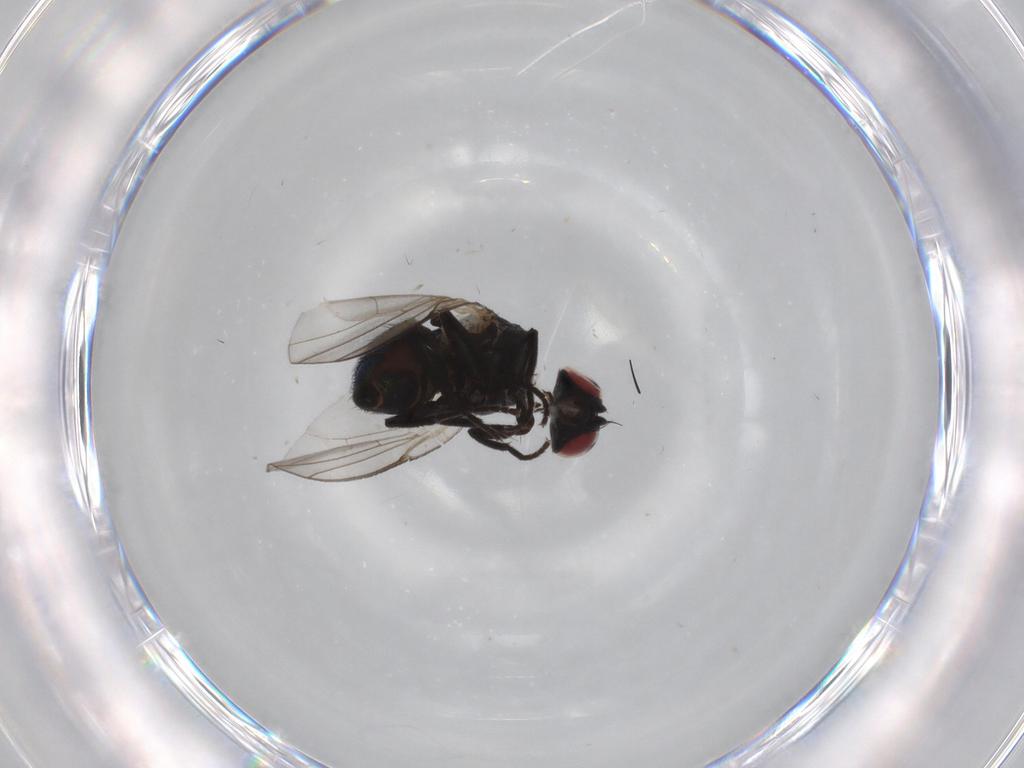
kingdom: Animalia
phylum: Arthropoda
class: Insecta
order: Diptera
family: Agromyzidae
